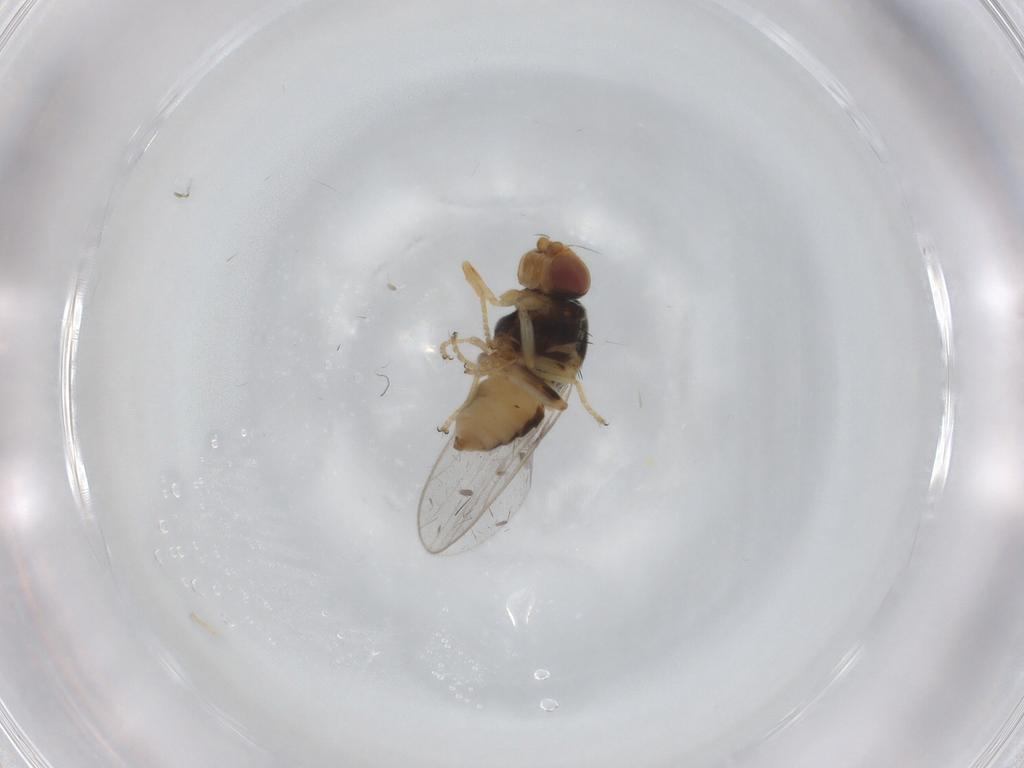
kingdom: Animalia
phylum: Arthropoda
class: Insecta
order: Diptera
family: Chloropidae
